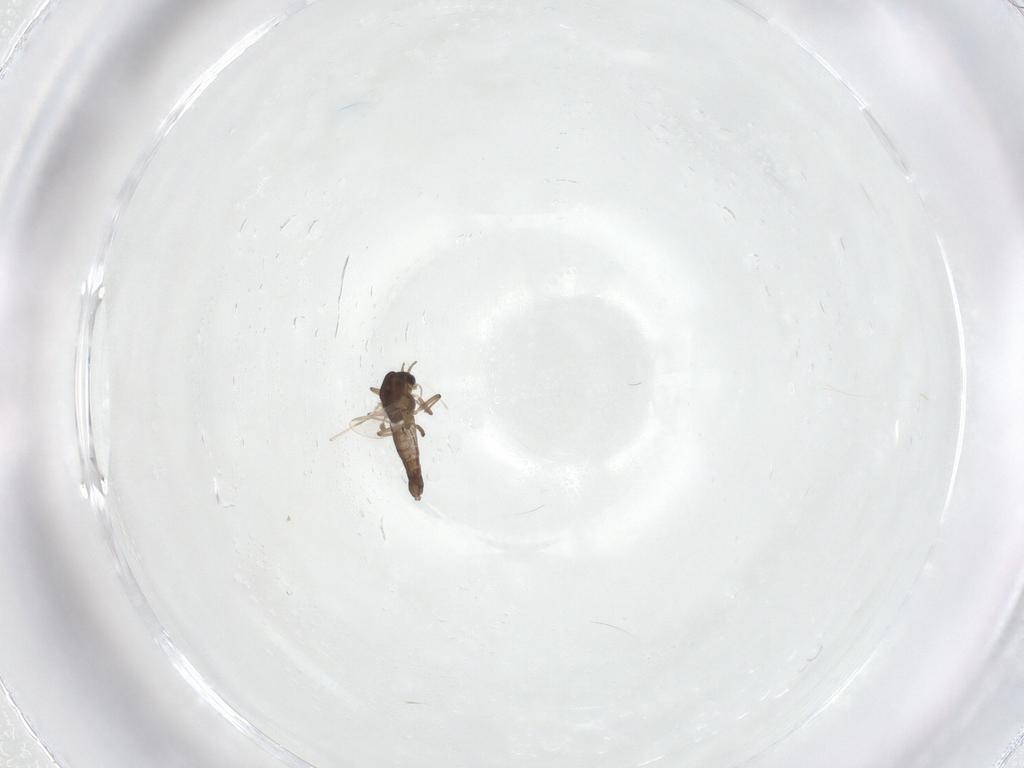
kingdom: Animalia
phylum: Arthropoda
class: Insecta
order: Diptera
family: Chironomidae
